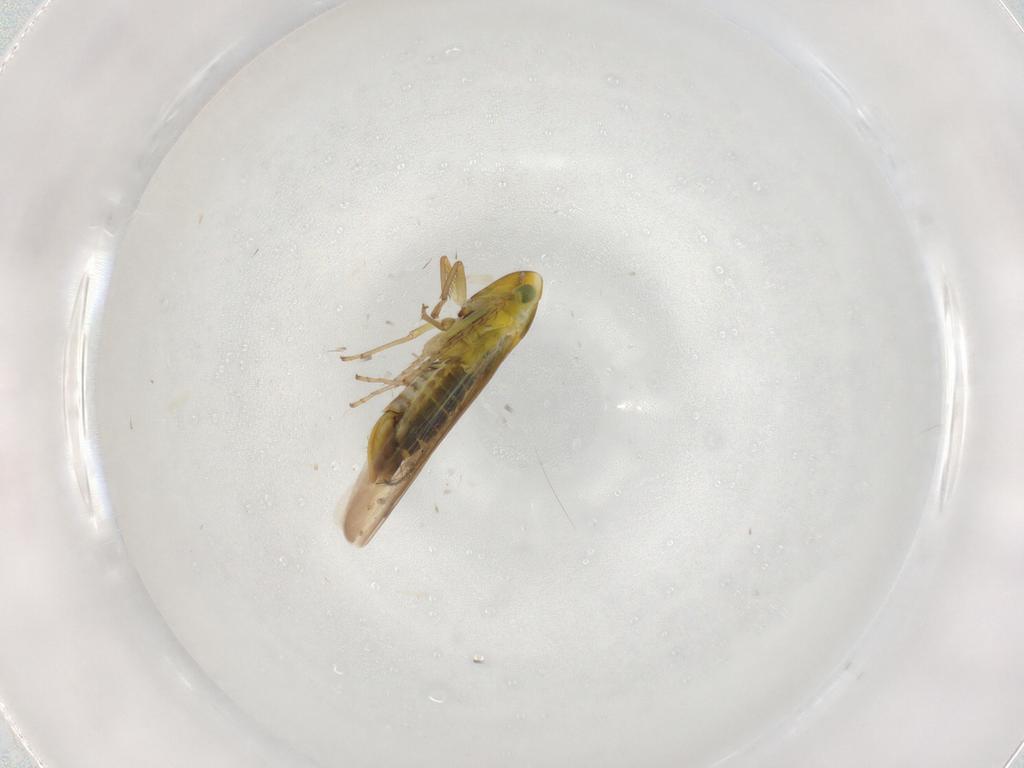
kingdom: Animalia
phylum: Arthropoda
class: Insecta
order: Hemiptera
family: Cicadellidae
